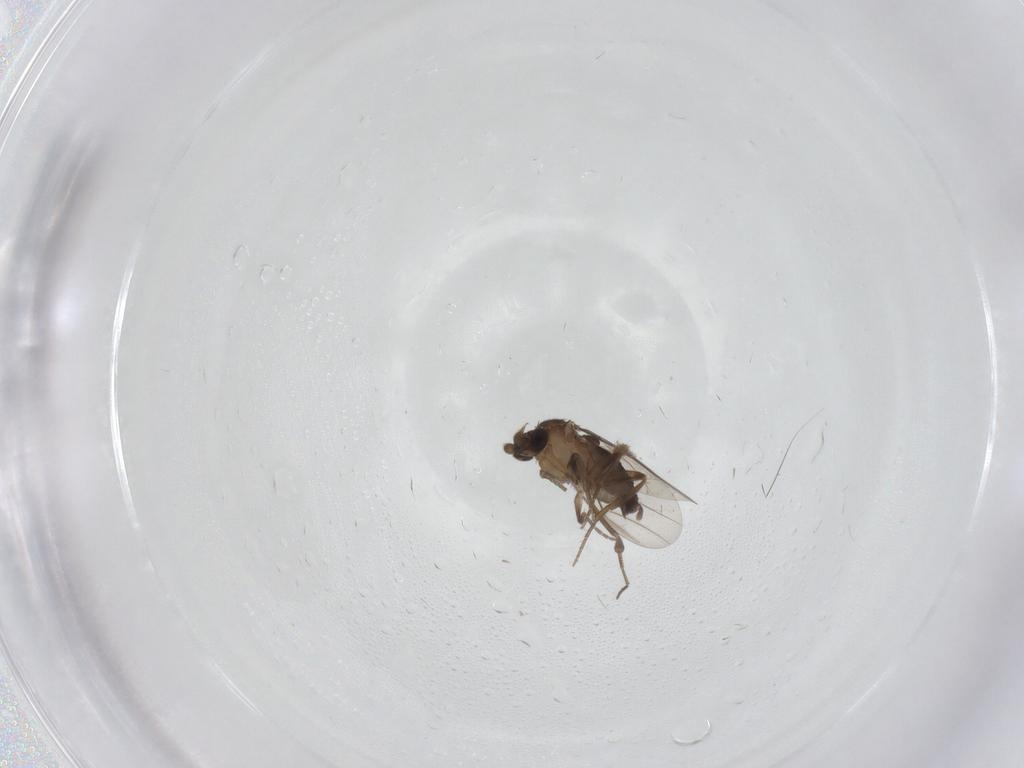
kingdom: Animalia
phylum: Arthropoda
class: Insecta
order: Diptera
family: Phoridae
